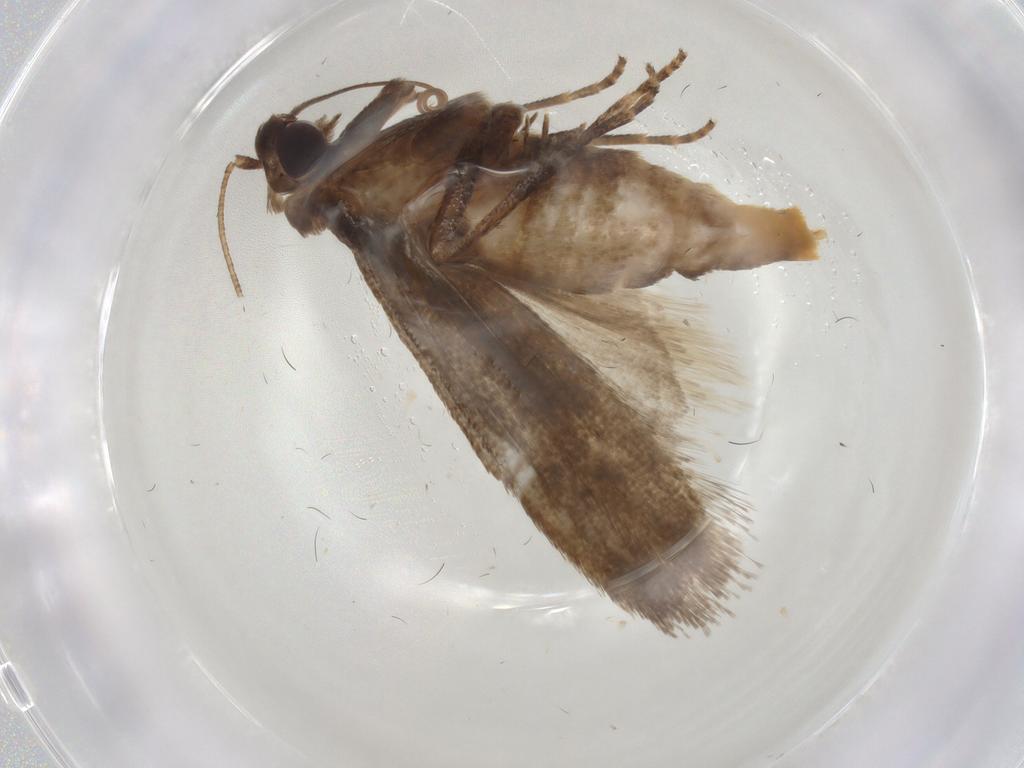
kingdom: Animalia
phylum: Arthropoda
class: Insecta
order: Lepidoptera
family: Coleophoridae
